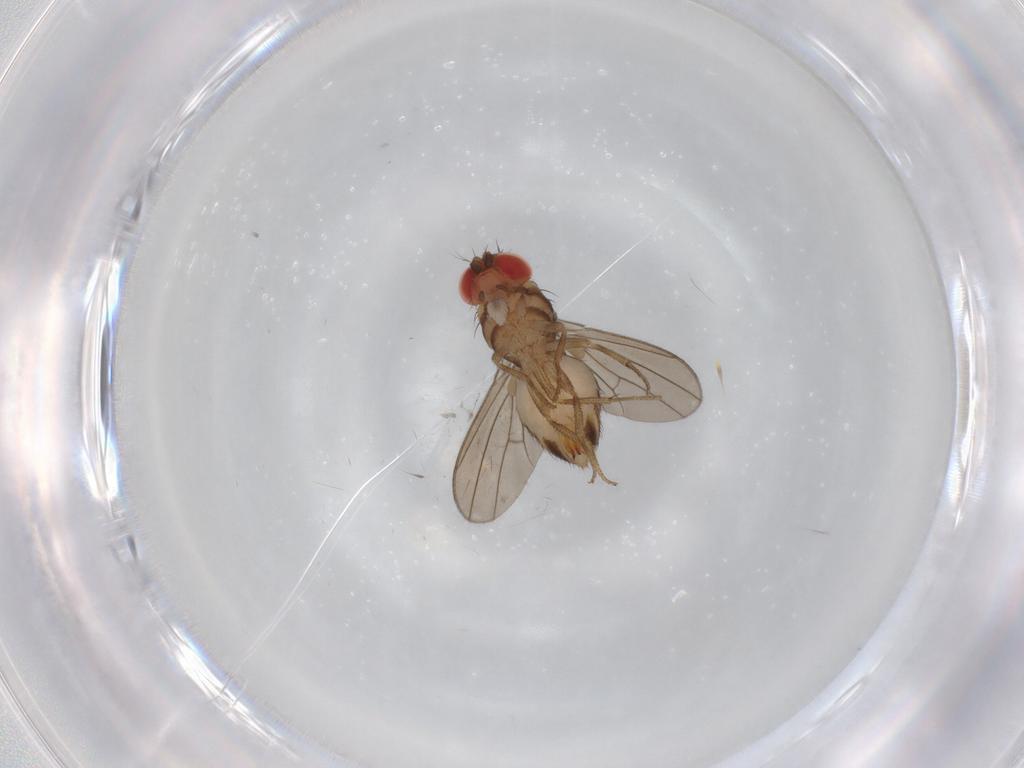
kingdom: Animalia
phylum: Arthropoda
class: Insecta
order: Diptera
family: Drosophilidae
